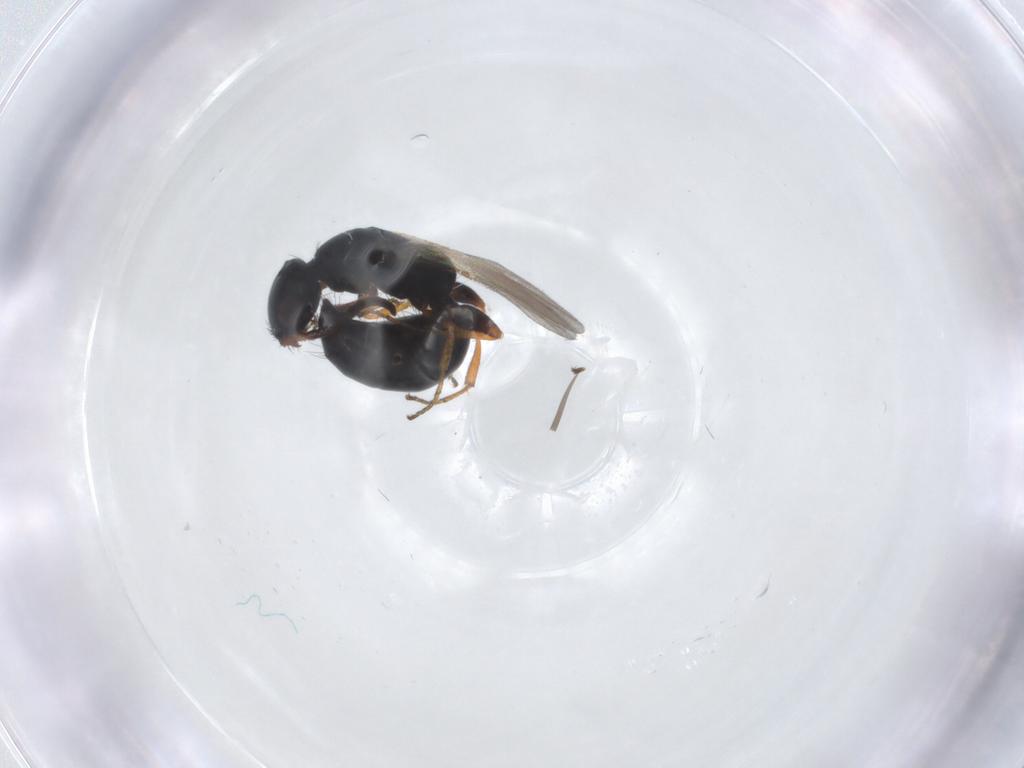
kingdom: Animalia
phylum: Arthropoda
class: Insecta
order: Hymenoptera
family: Bethylidae
